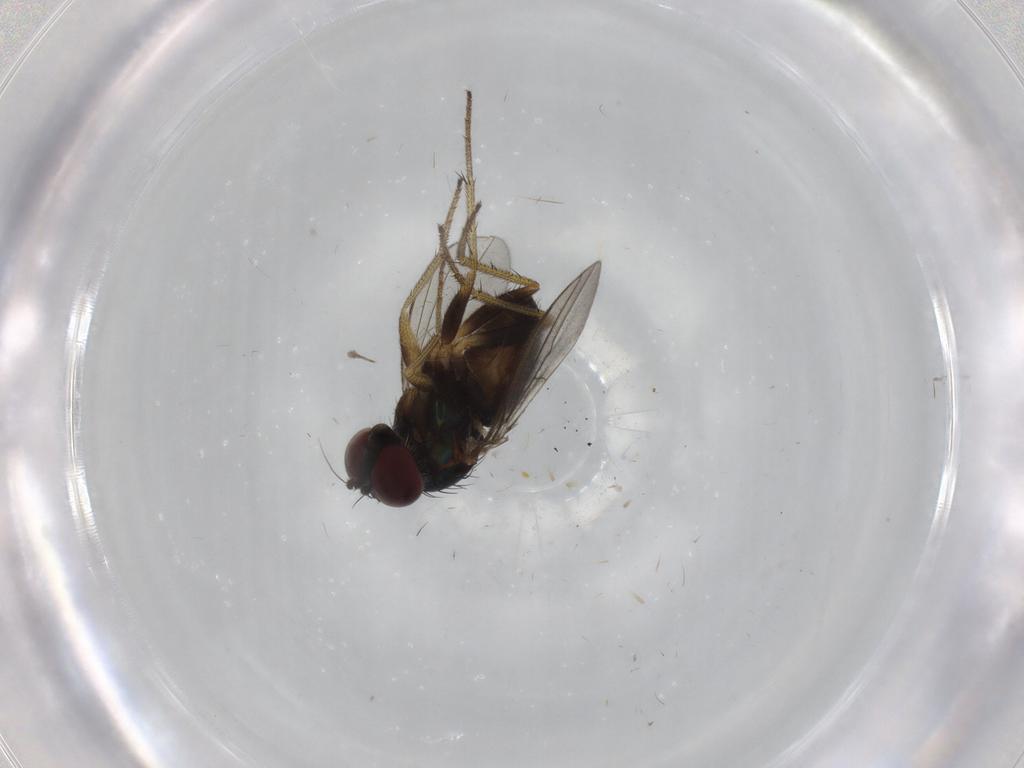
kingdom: Animalia
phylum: Arthropoda
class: Insecta
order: Diptera
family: Dolichopodidae
